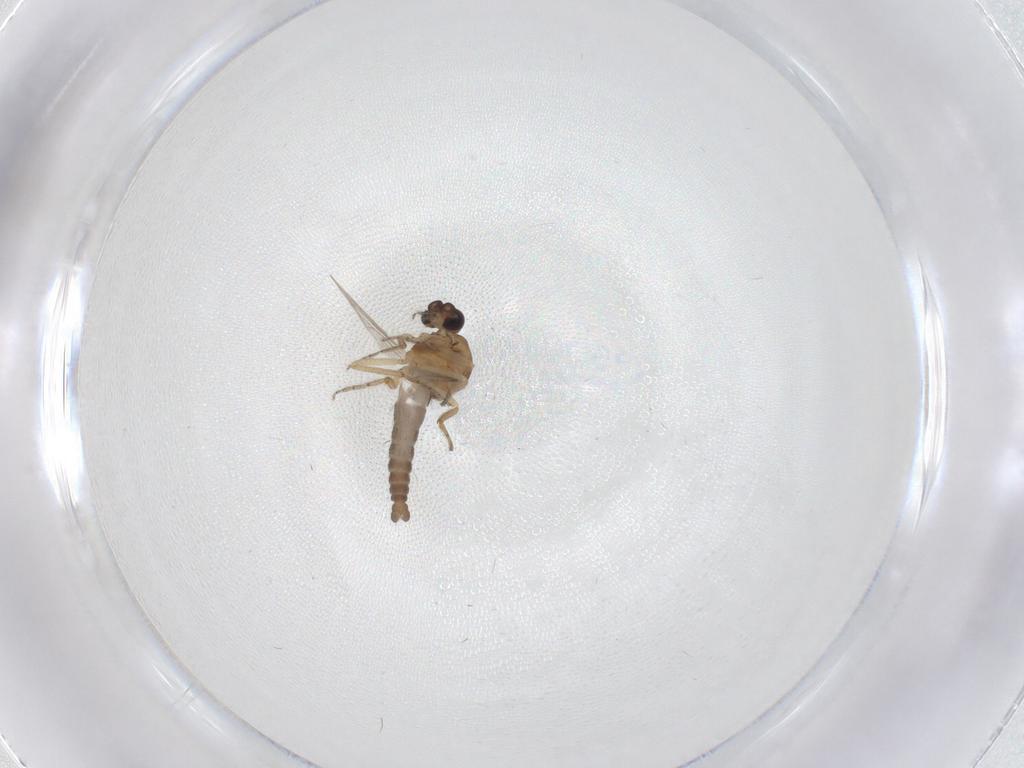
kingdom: Animalia
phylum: Arthropoda
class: Insecta
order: Diptera
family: Ceratopogonidae
